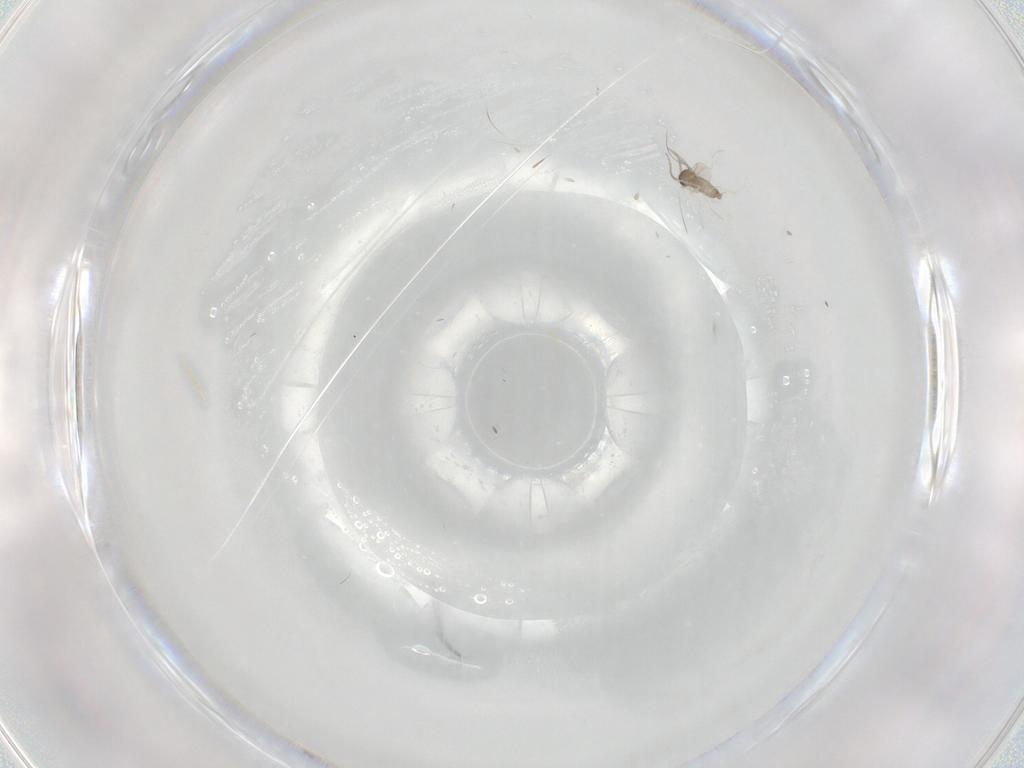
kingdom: Animalia
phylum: Arthropoda
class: Insecta
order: Diptera
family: Cecidomyiidae
